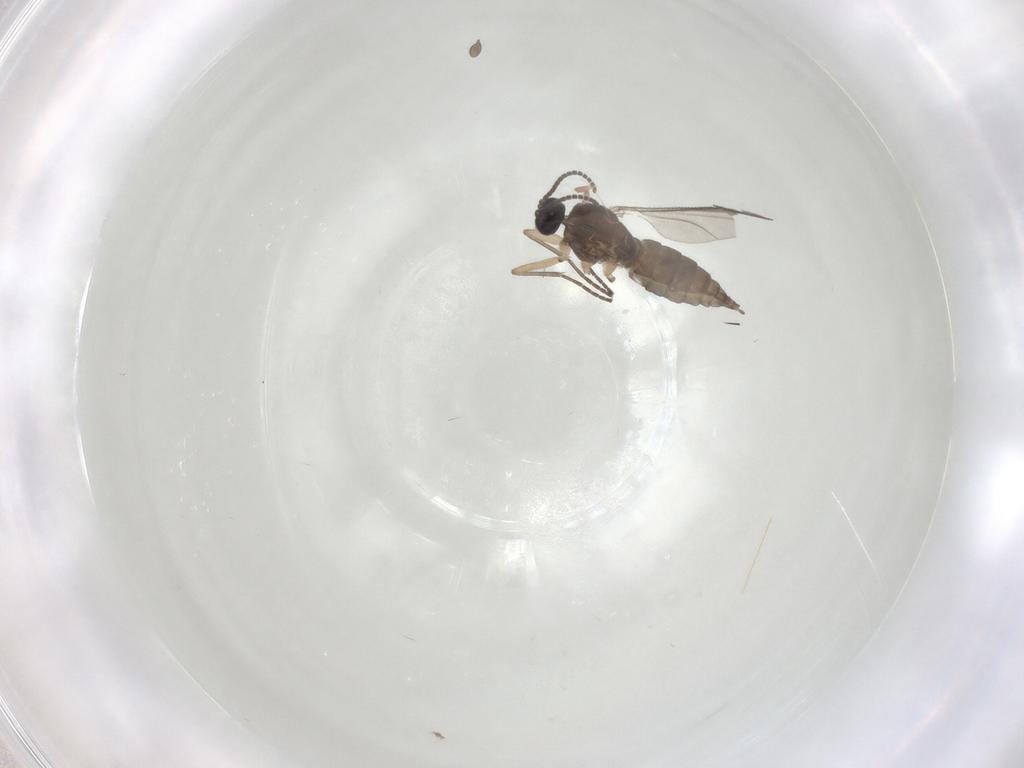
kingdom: Animalia
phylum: Arthropoda
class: Insecta
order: Diptera
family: Sciaridae
